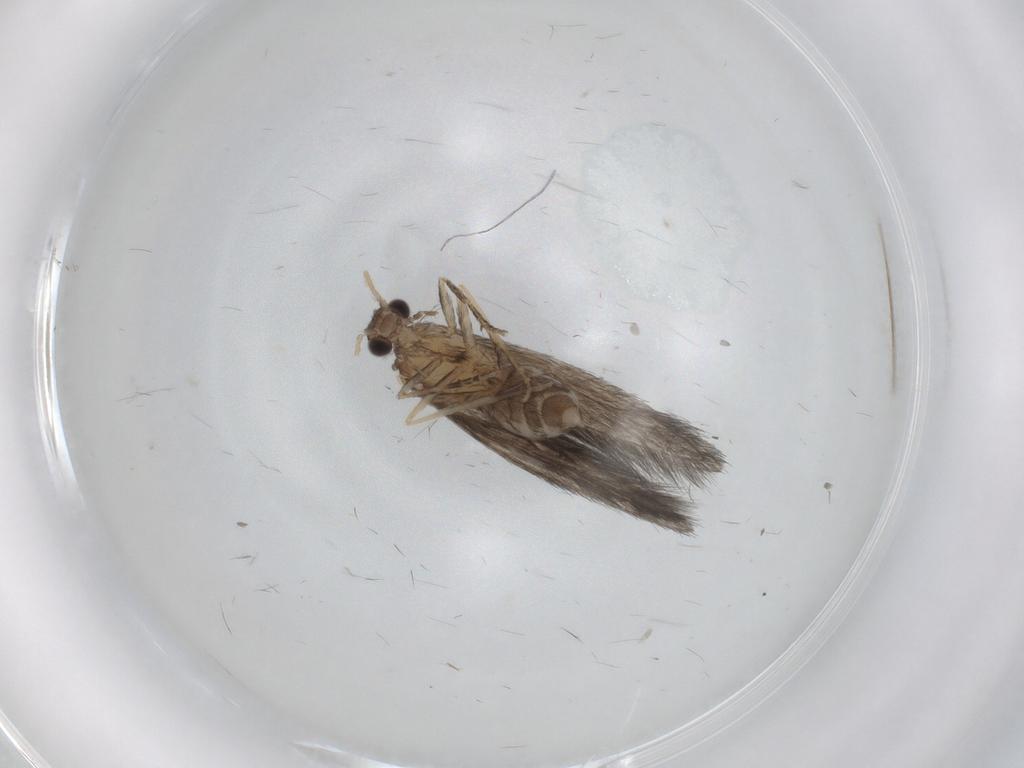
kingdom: Animalia
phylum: Arthropoda
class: Insecta
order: Trichoptera
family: Hydroptilidae
